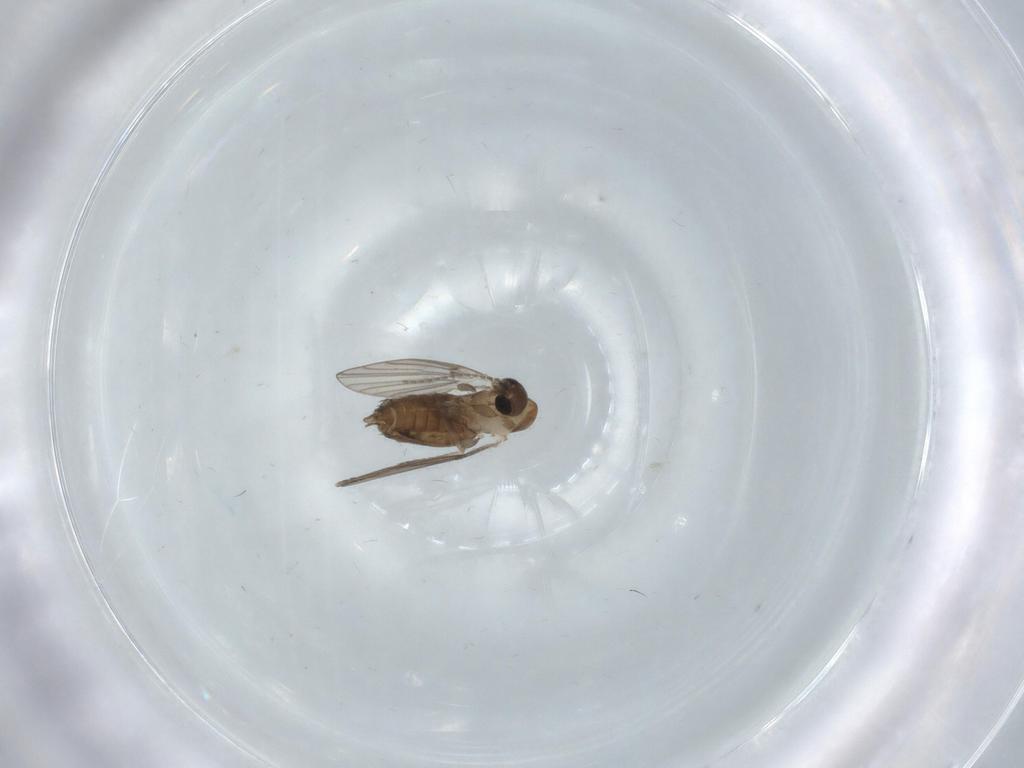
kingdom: Animalia
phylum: Arthropoda
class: Insecta
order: Diptera
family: Psychodidae
